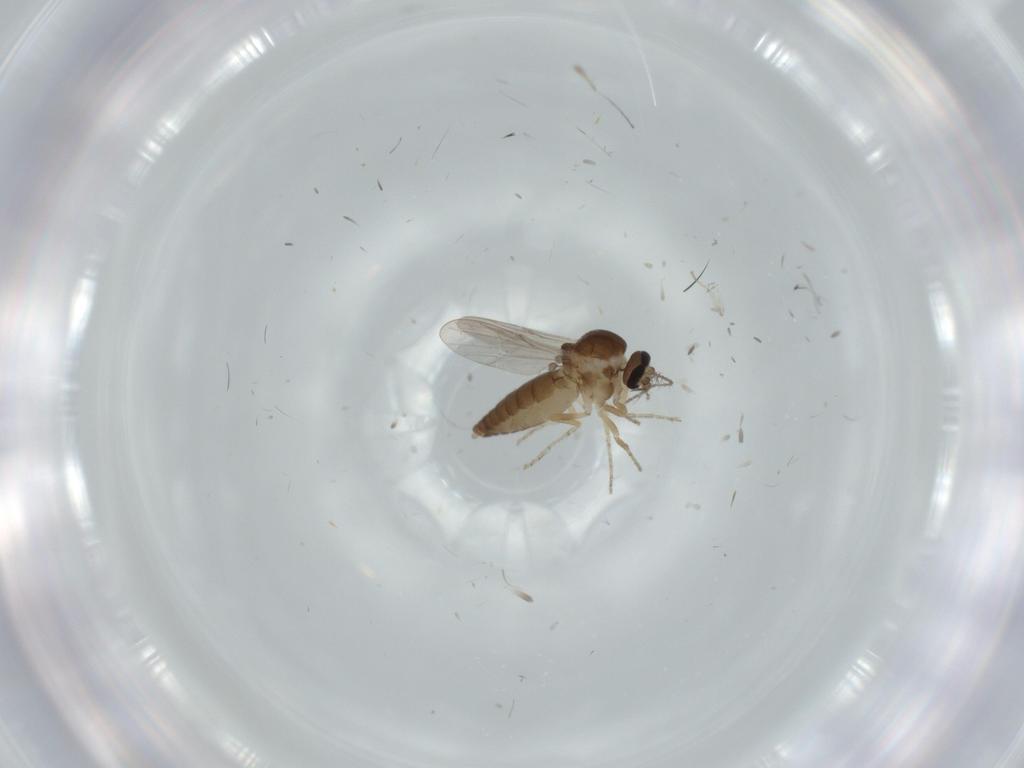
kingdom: Animalia
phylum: Arthropoda
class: Insecta
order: Diptera
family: Ceratopogonidae
